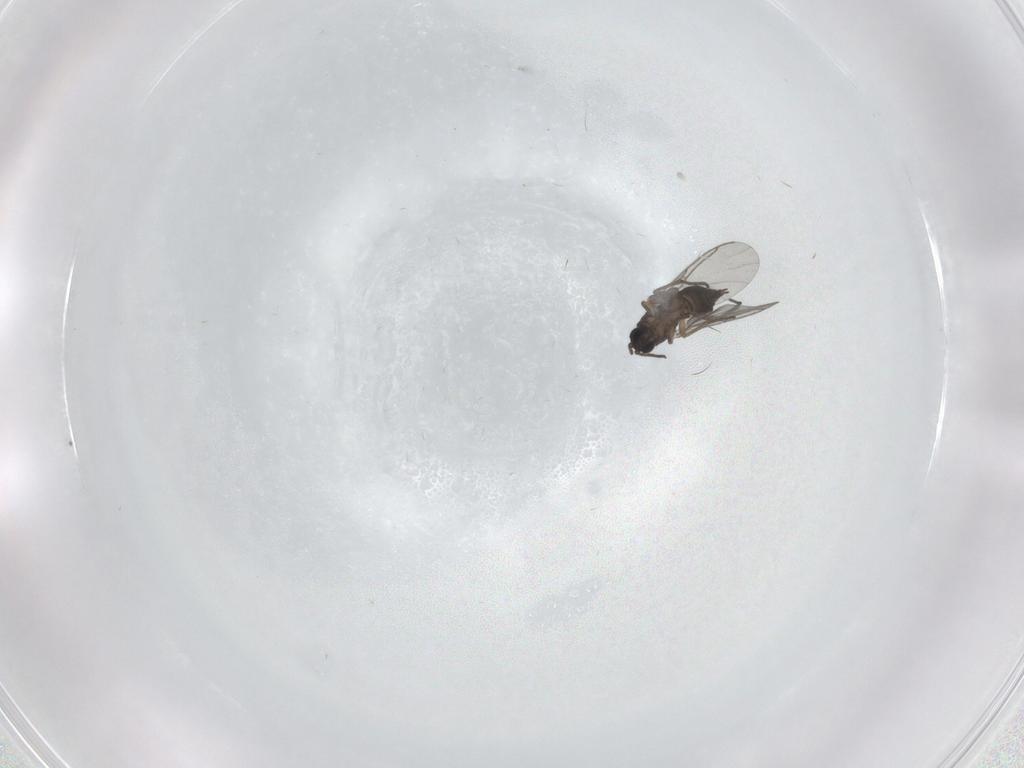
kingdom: Animalia
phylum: Arthropoda
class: Insecta
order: Diptera
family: Sciaridae
